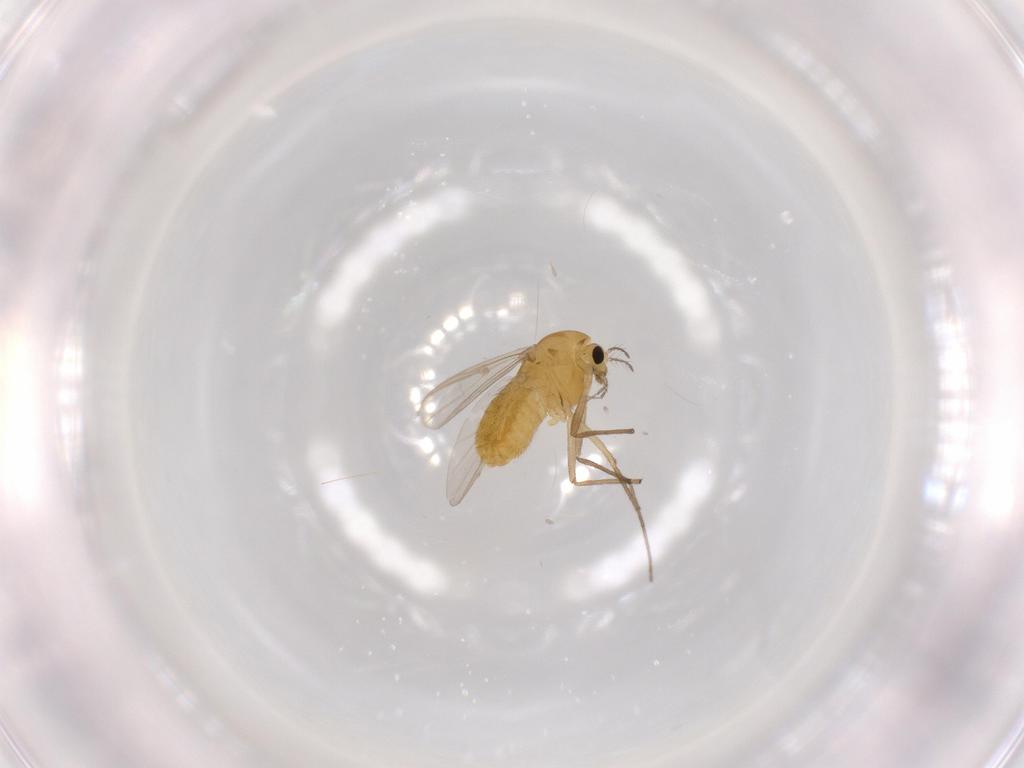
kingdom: Animalia
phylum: Arthropoda
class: Insecta
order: Diptera
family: Chironomidae
